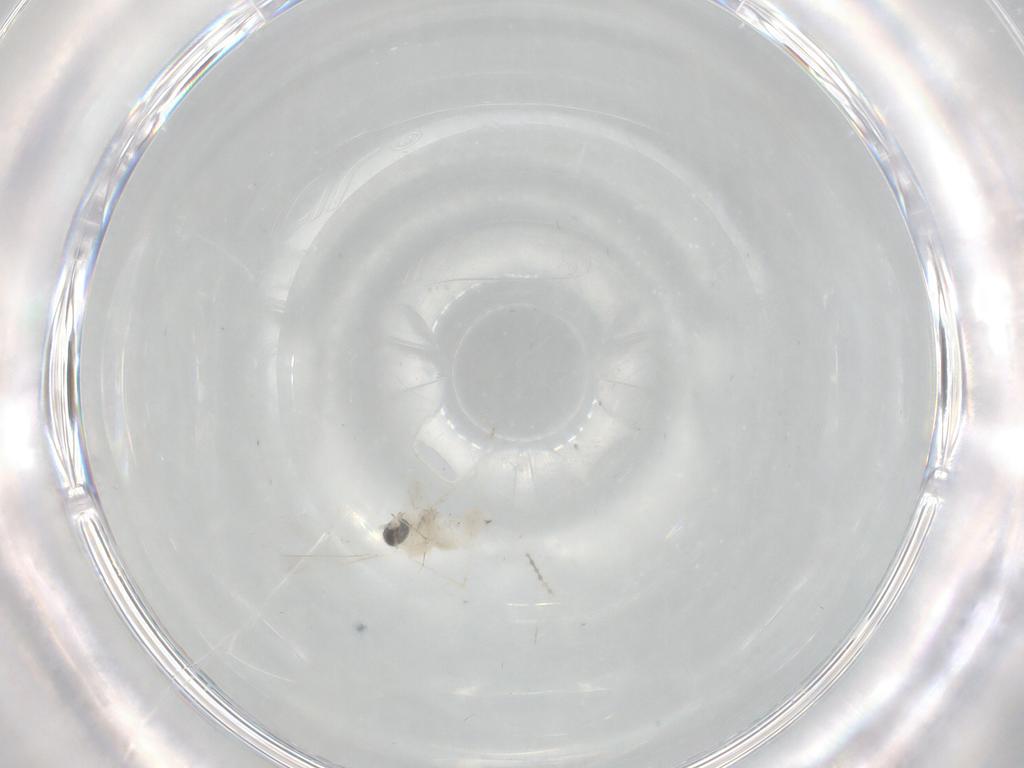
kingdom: Animalia
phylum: Arthropoda
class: Insecta
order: Diptera
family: Cecidomyiidae
